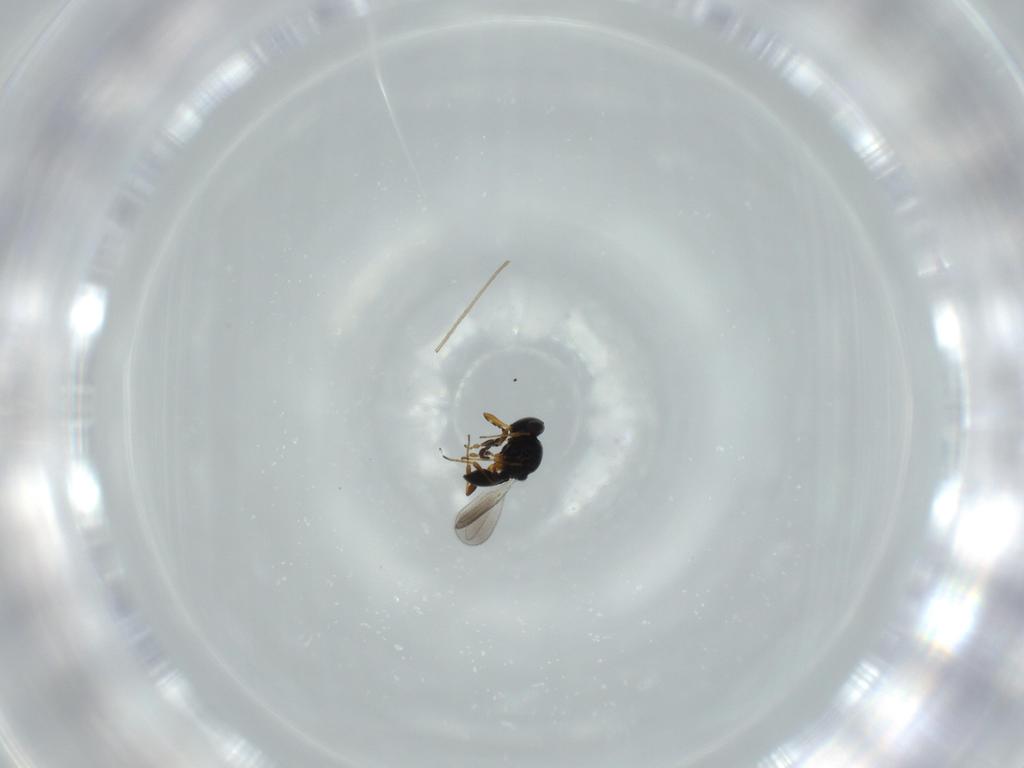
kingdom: Animalia
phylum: Arthropoda
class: Insecta
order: Hymenoptera
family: Platygastridae
